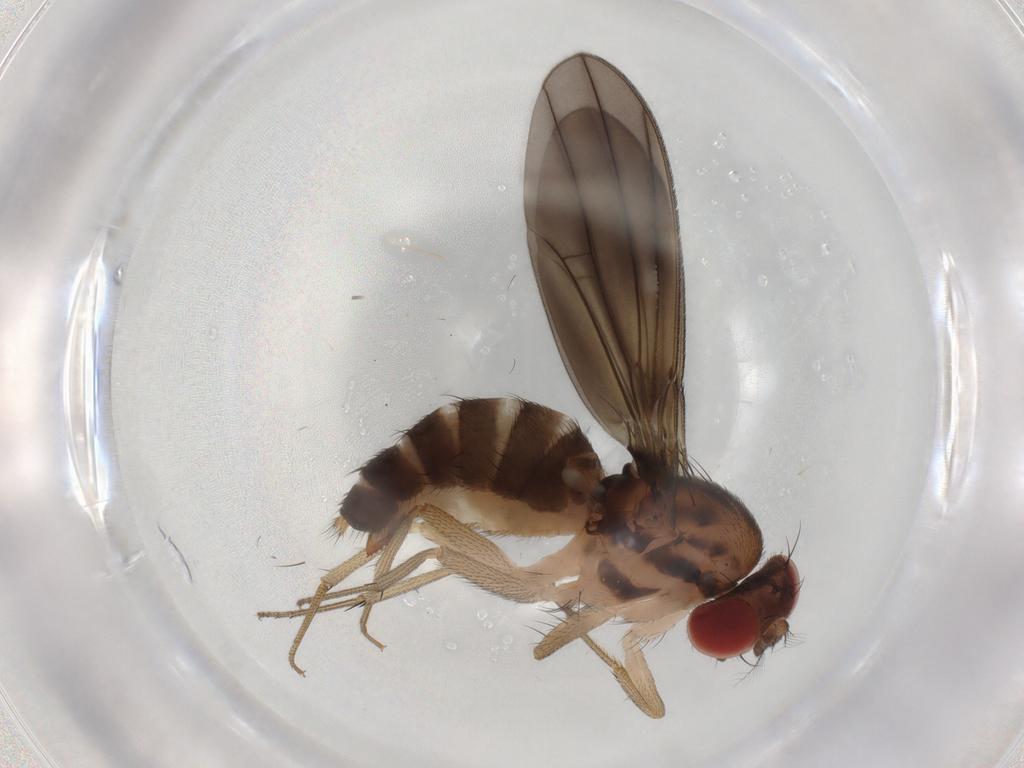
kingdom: Animalia
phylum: Arthropoda
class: Insecta
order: Diptera
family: Drosophilidae
